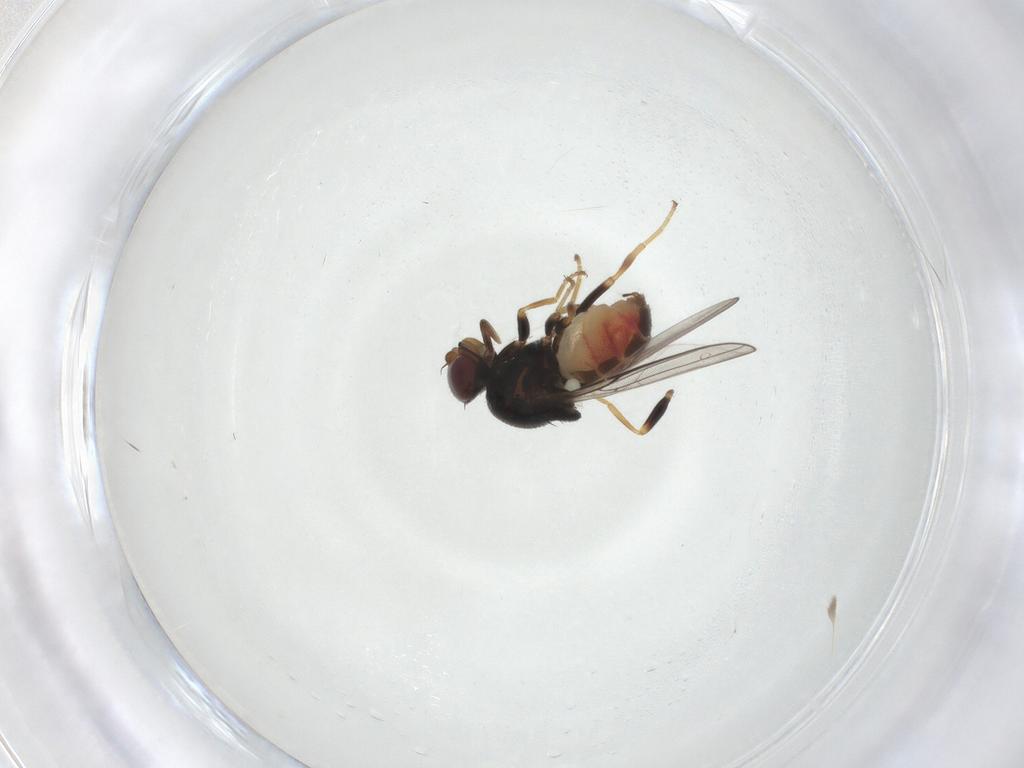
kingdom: Animalia
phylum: Arthropoda
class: Insecta
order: Diptera
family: Chloropidae
